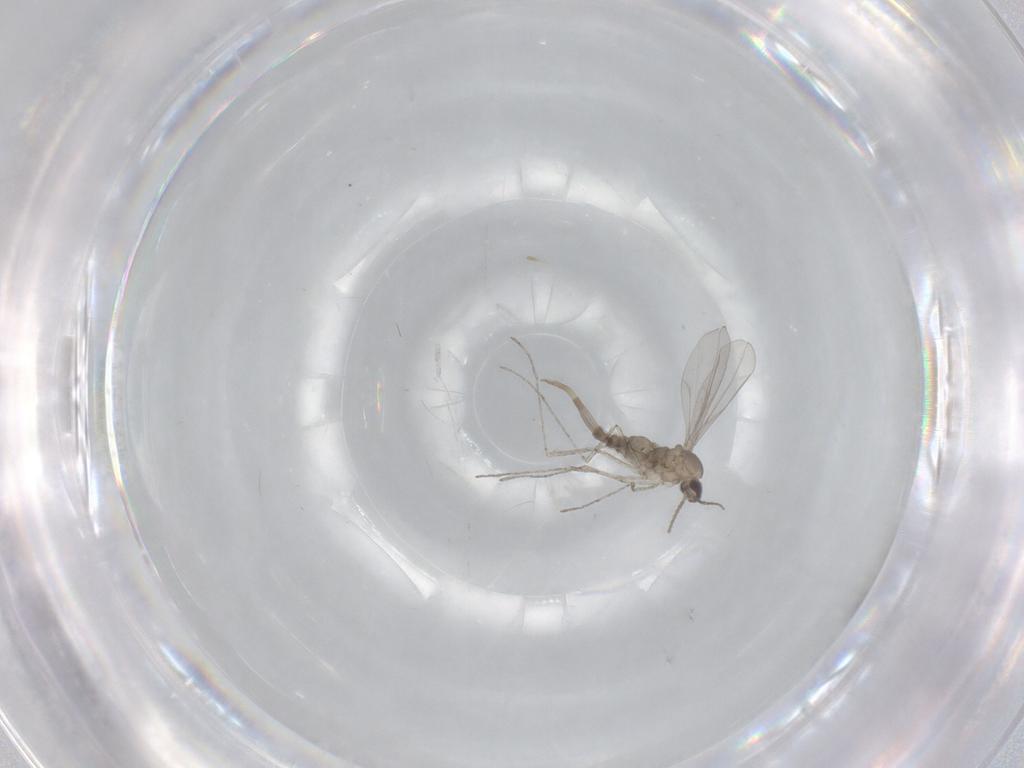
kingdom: Animalia
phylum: Arthropoda
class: Insecta
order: Diptera
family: Cecidomyiidae
